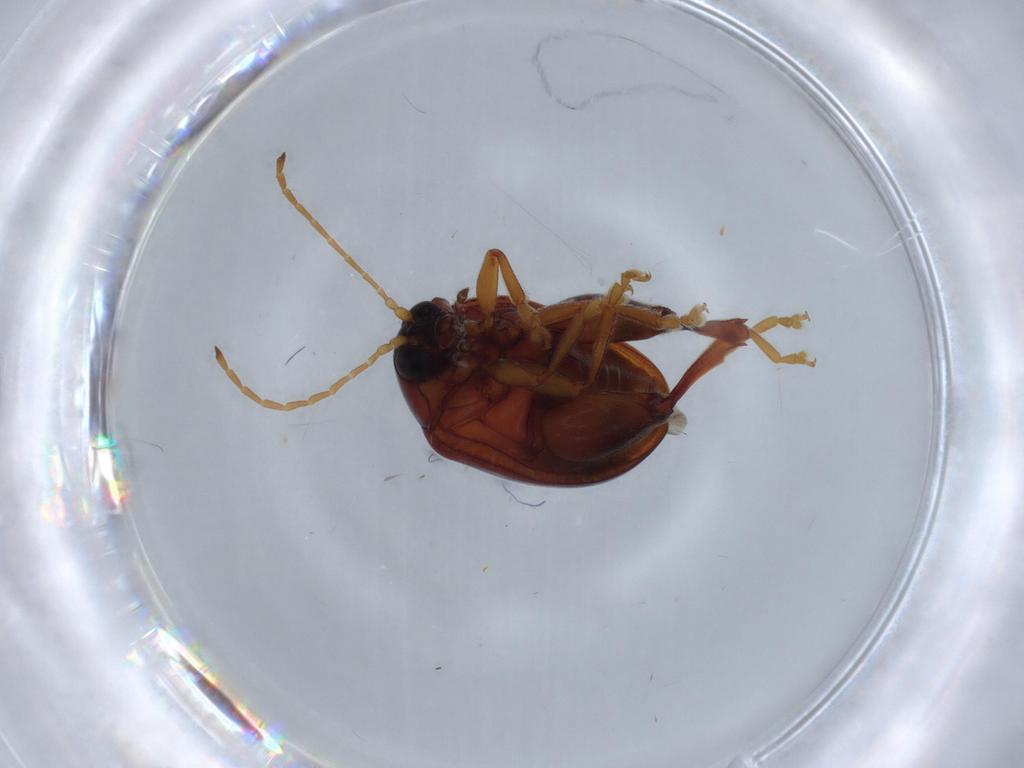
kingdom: Animalia
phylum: Arthropoda
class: Insecta
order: Coleoptera
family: Chrysomelidae
